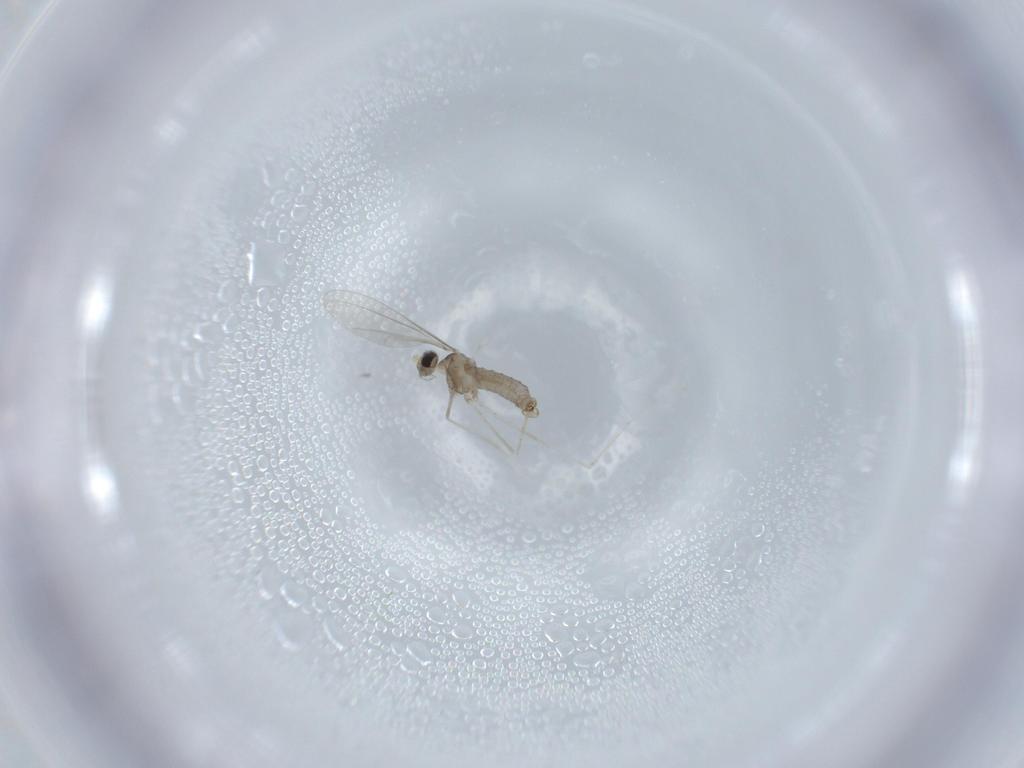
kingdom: Animalia
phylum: Arthropoda
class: Insecta
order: Diptera
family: Cecidomyiidae
